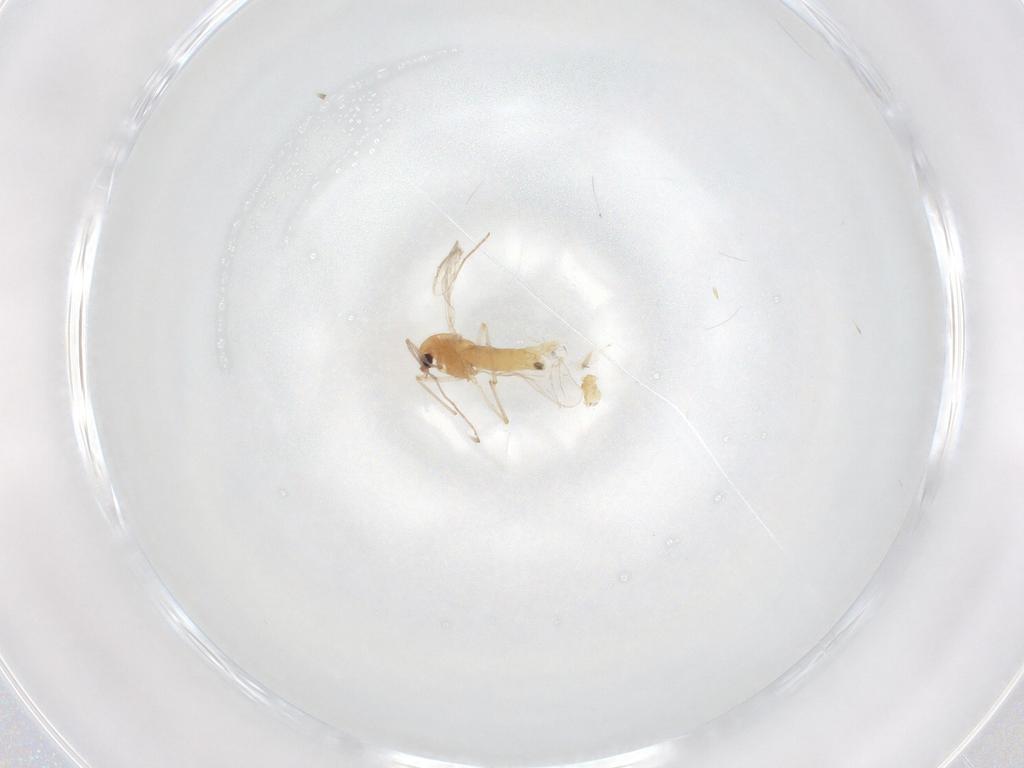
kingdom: Animalia
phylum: Arthropoda
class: Insecta
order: Diptera
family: Chironomidae
